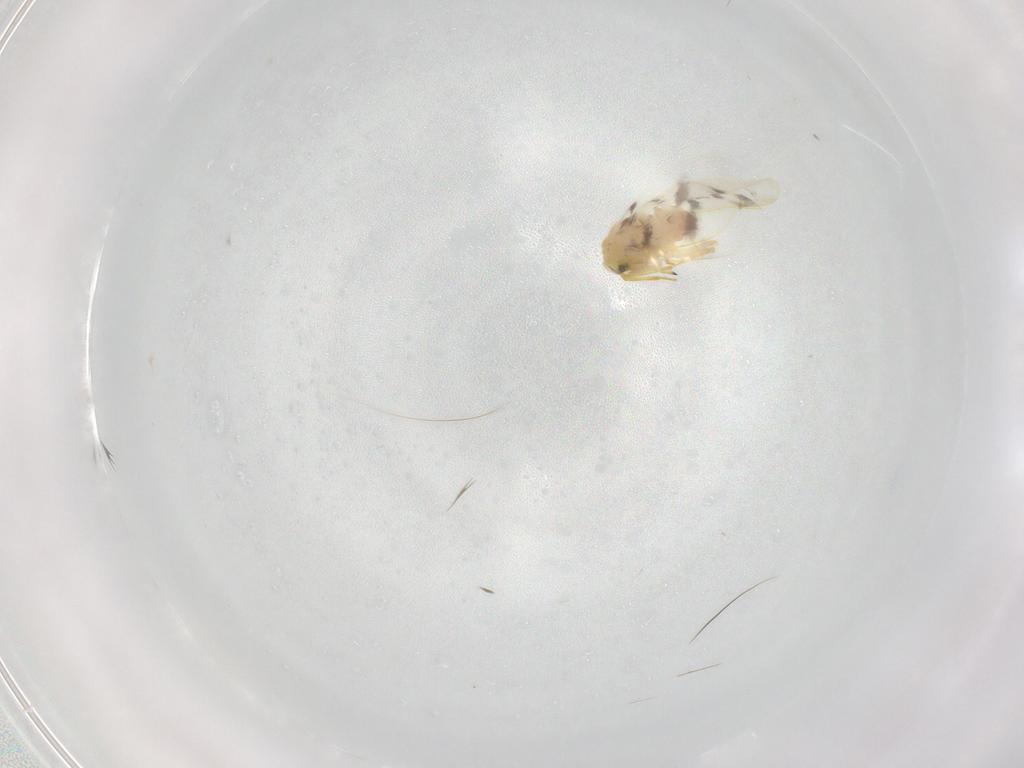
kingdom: Animalia
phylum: Arthropoda
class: Insecta
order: Hemiptera
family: Aleyrodidae
